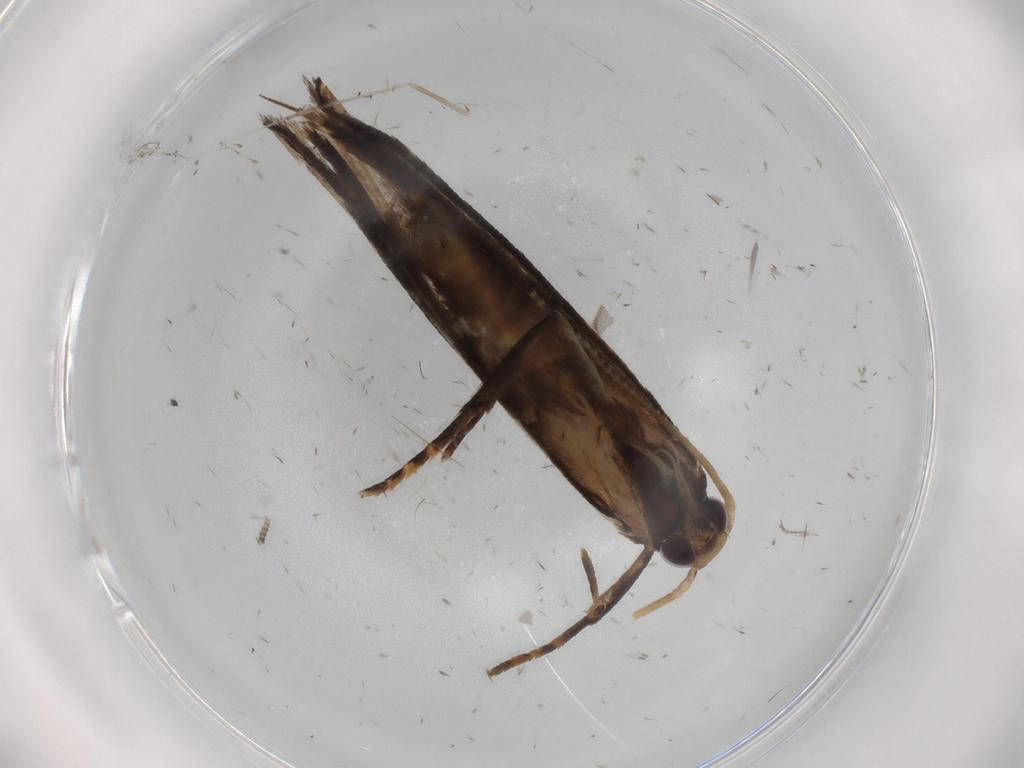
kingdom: Animalia
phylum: Arthropoda
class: Insecta
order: Lepidoptera
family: Gelechiidae
